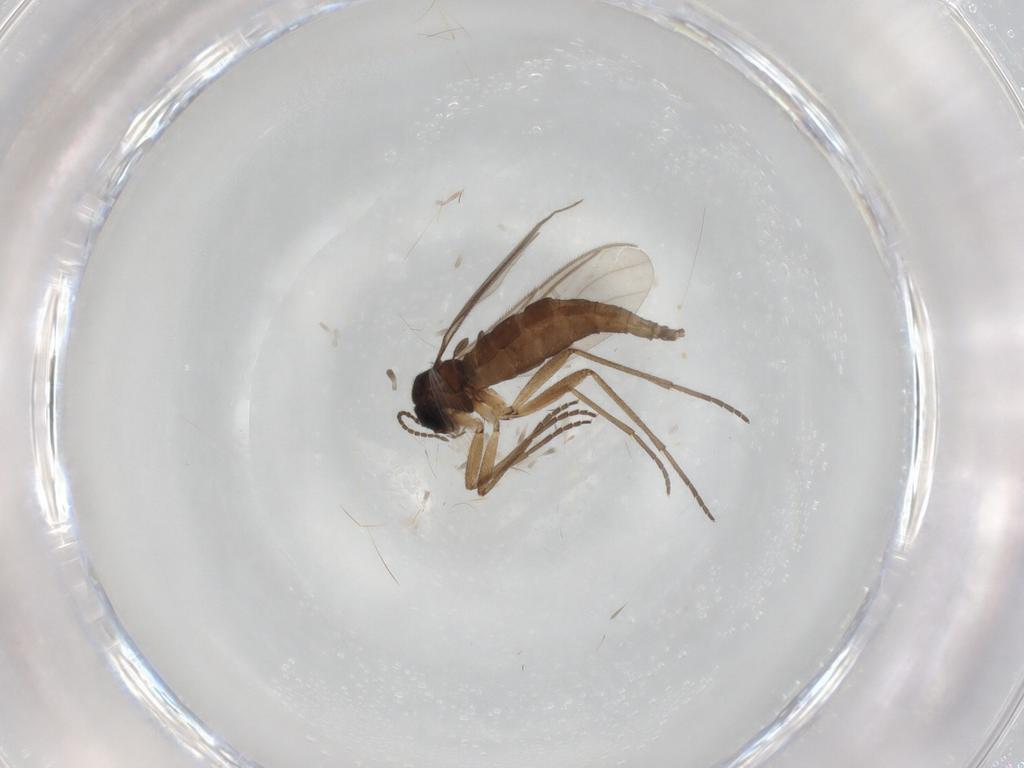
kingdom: Animalia
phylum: Arthropoda
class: Insecta
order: Diptera
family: Sciaridae
